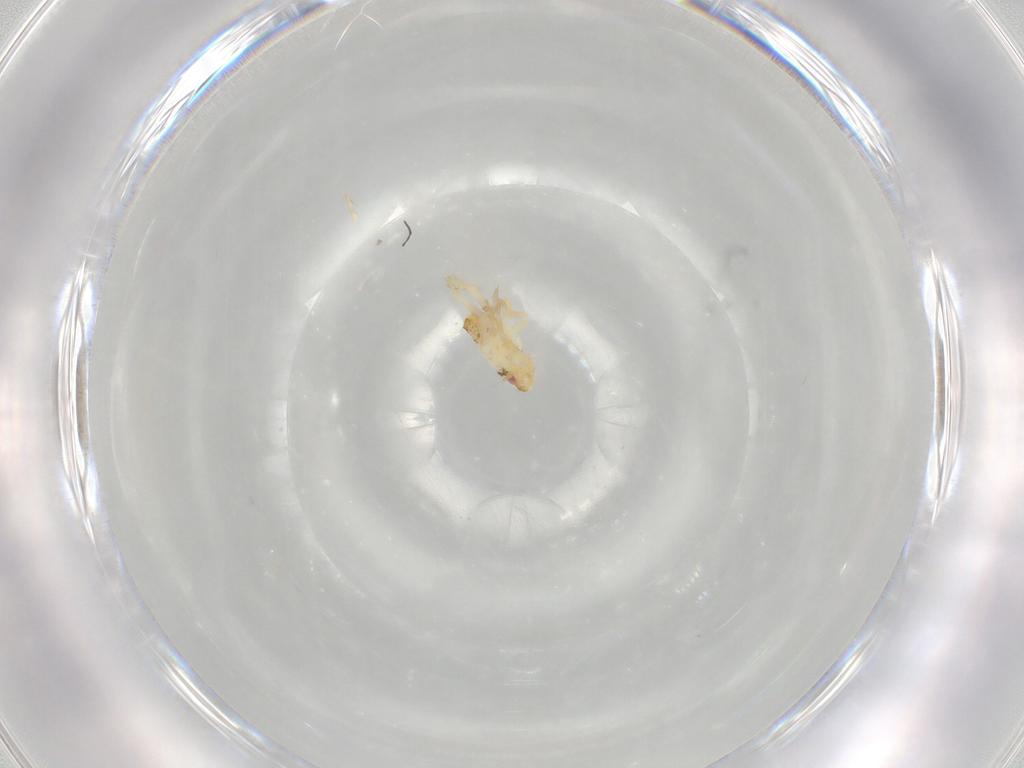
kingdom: Animalia
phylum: Arthropoda
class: Insecta
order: Hemiptera
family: Flatidae
